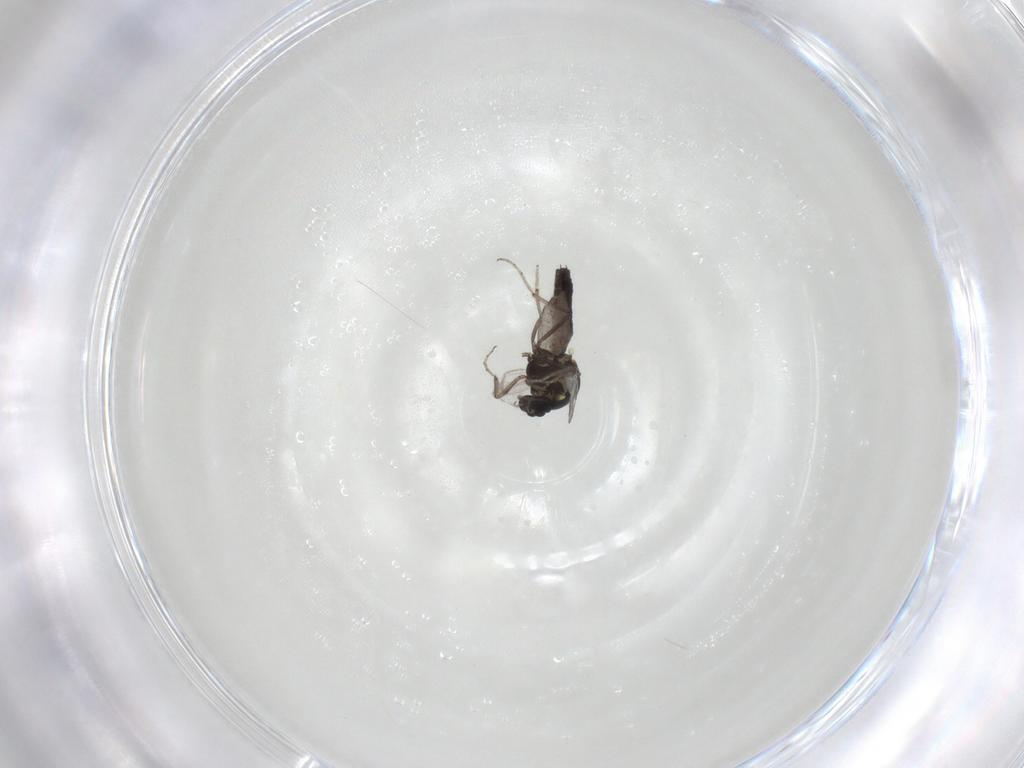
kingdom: Animalia
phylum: Arthropoda
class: Insecta
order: Diptera
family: Ceratopogonidae
